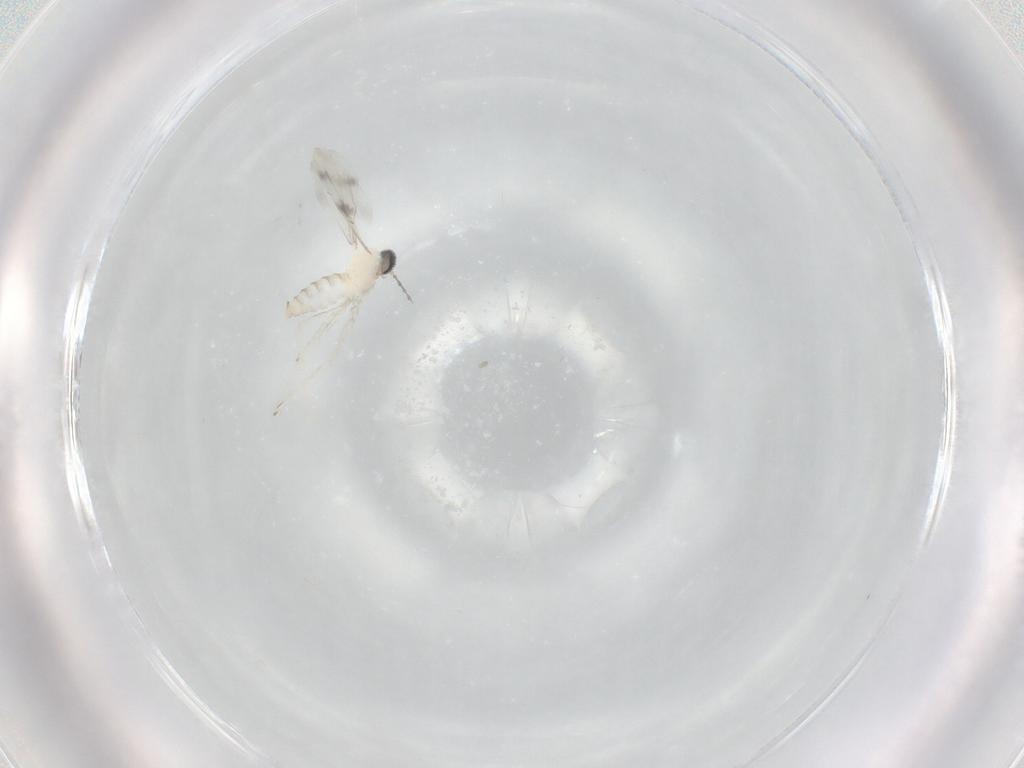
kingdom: Animalia
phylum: Arthropoda
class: Insecta
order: Diptera
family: Cecidomyiidae
